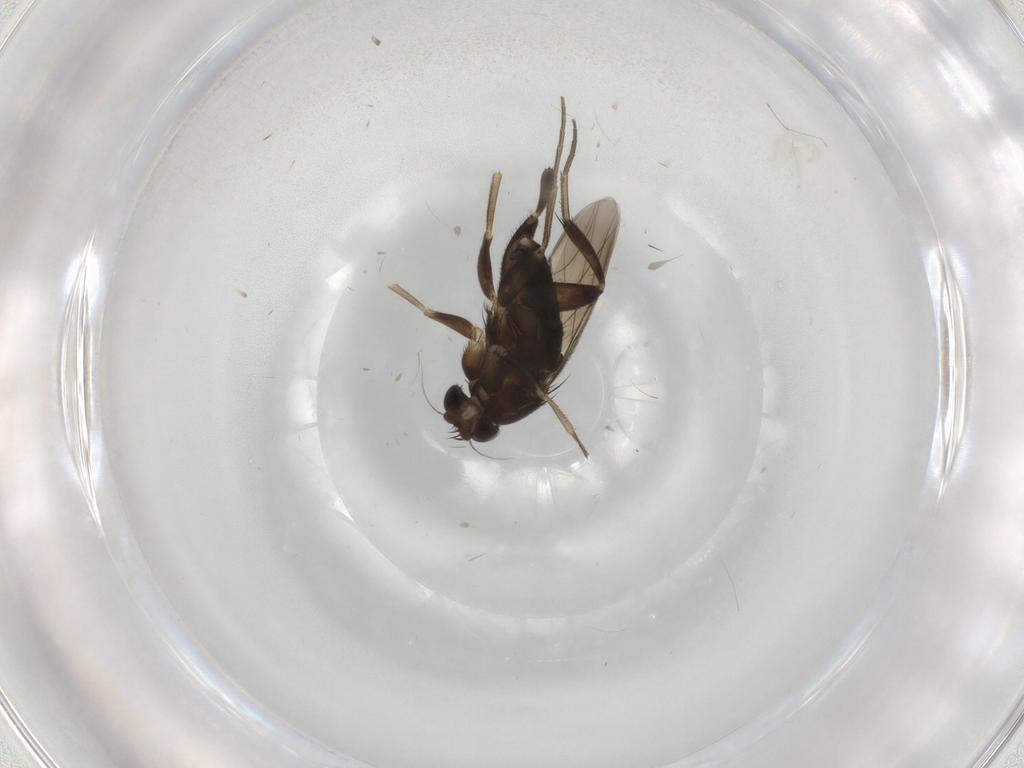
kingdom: Animalia
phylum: Arthropoda
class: Insecta
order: Diptera
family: Phoridae
